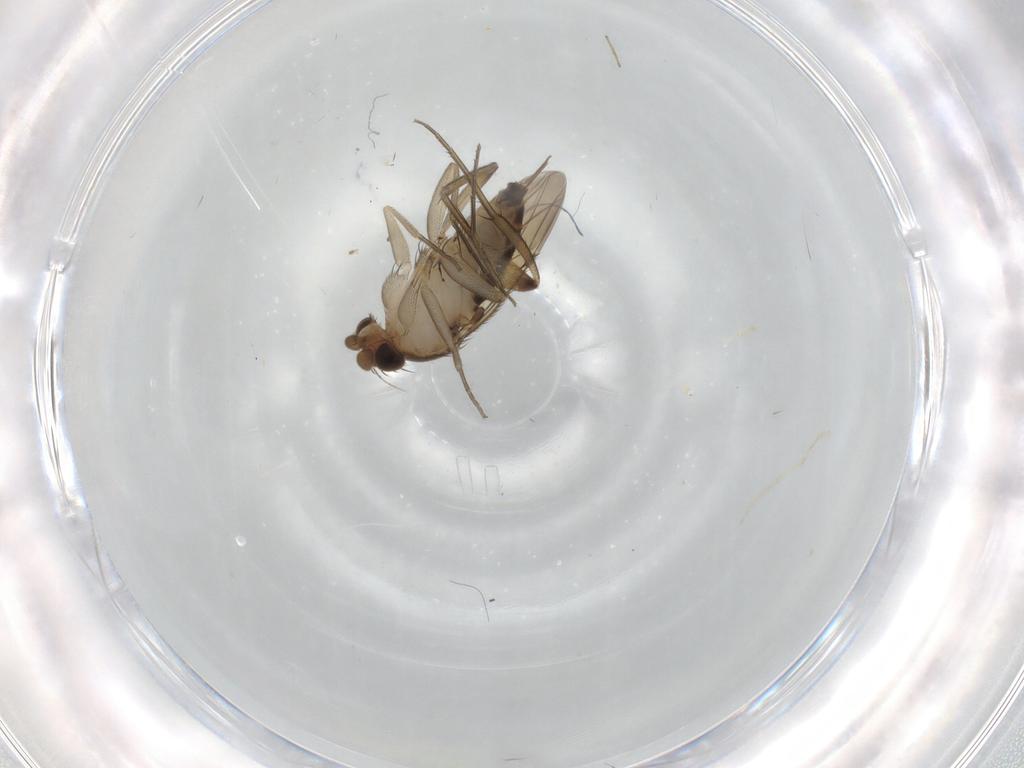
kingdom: Animalia
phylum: Arthropoda
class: Insecta
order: Diptera
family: Phoridae
